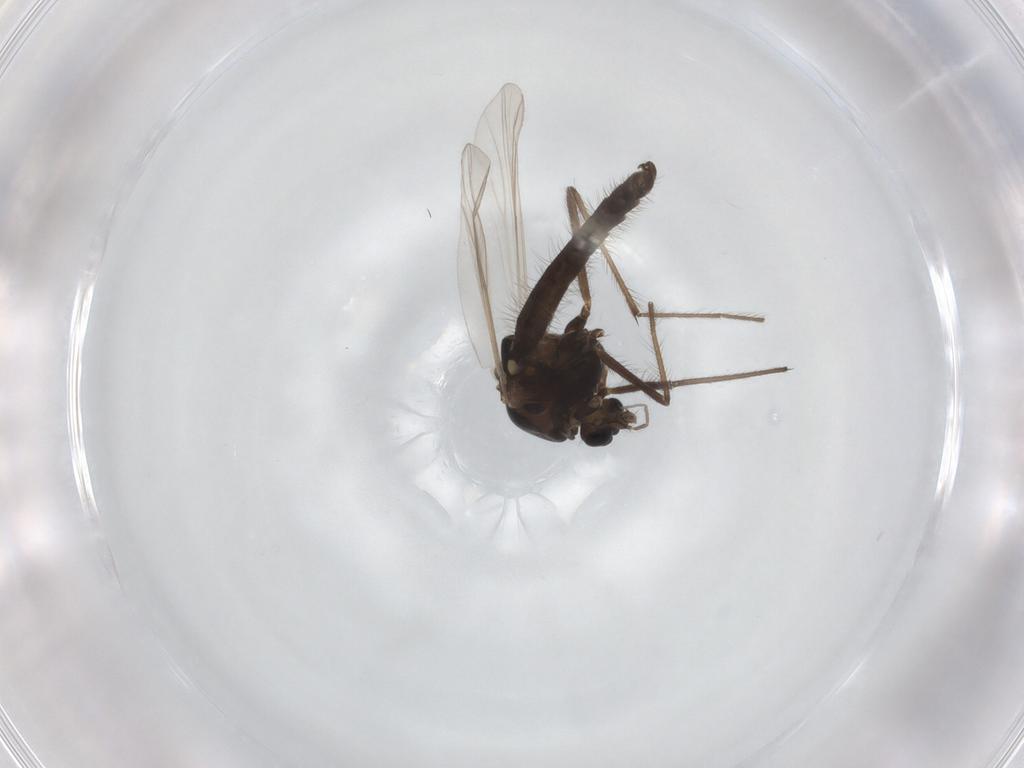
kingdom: Animalia
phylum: Arthropoda
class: Insecta
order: Diptera
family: Chironomidae
